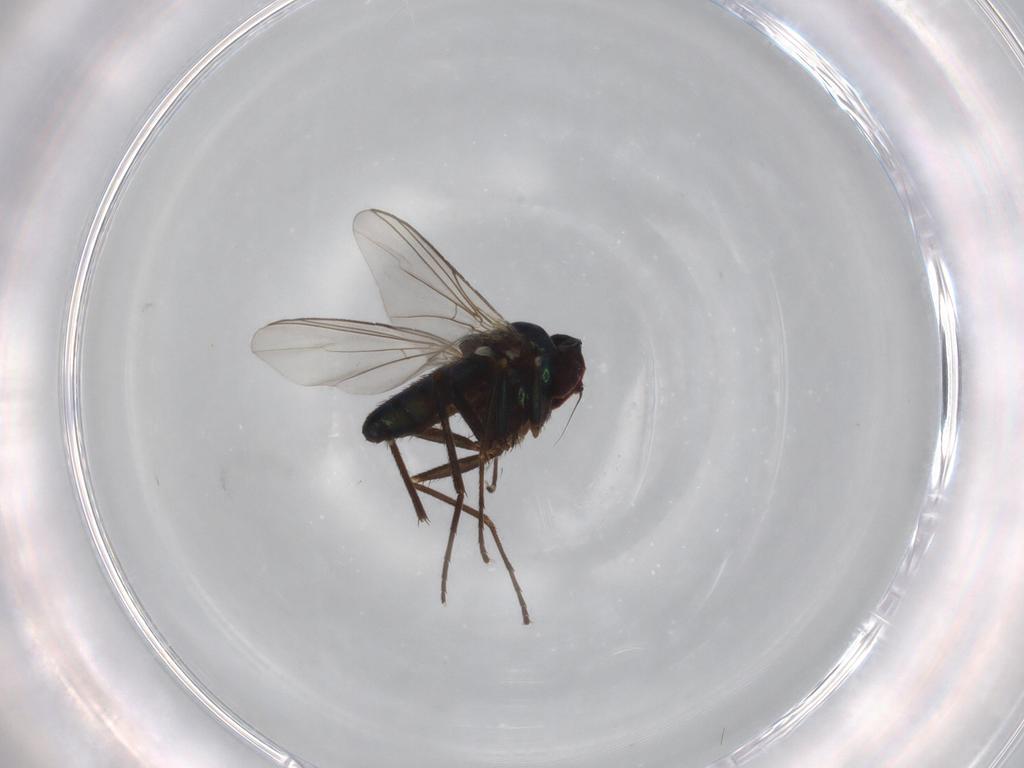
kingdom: Animalia
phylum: Arthropoda
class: Insecta
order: Diptera
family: Dolichopodidae
